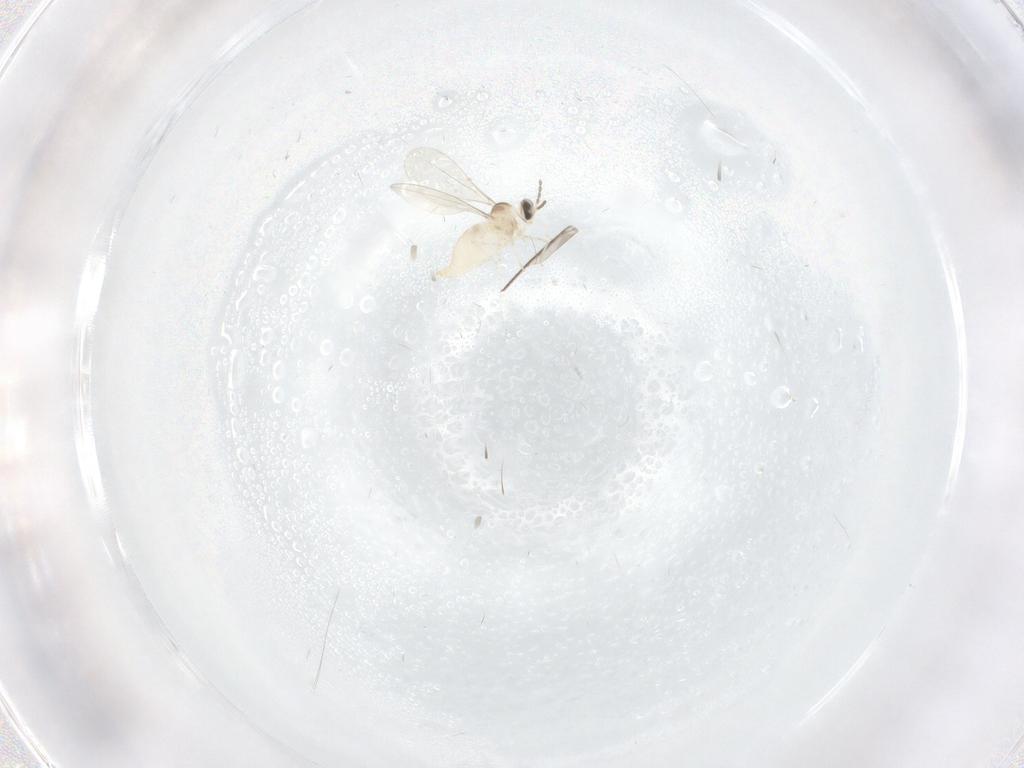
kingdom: Animalia
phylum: Arthropoda
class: Insecta
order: Diptera
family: Cecidomyiidae
